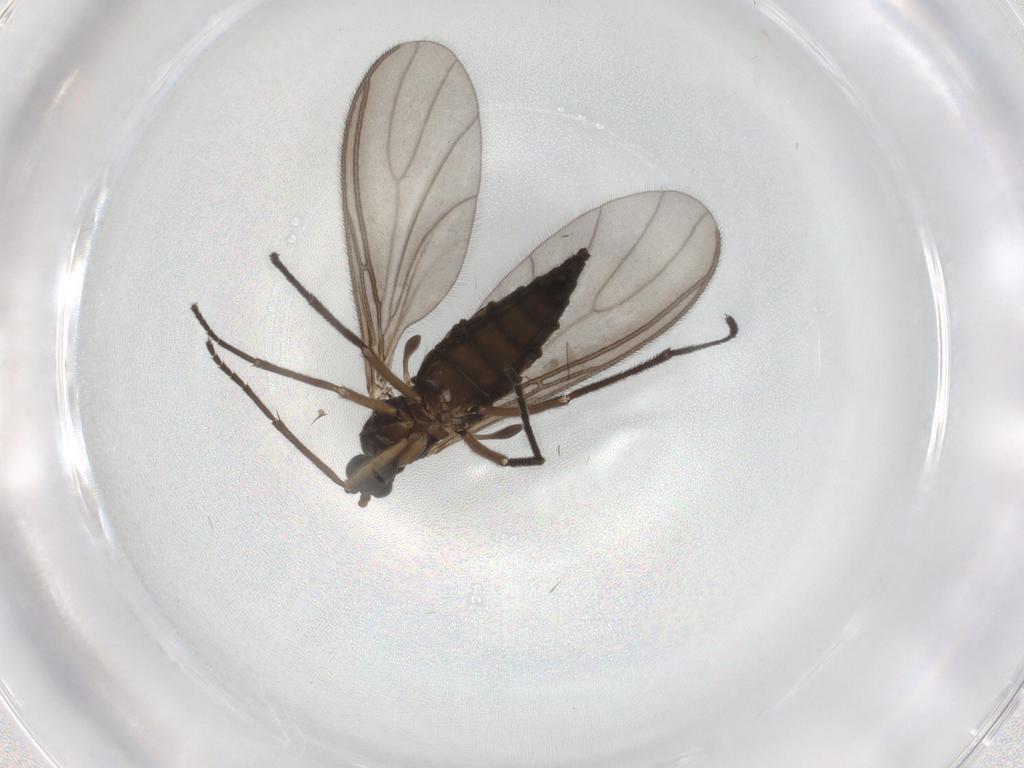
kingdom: Animalia
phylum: Arthropoda
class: Insecta
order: Diptera
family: Sciaridae
